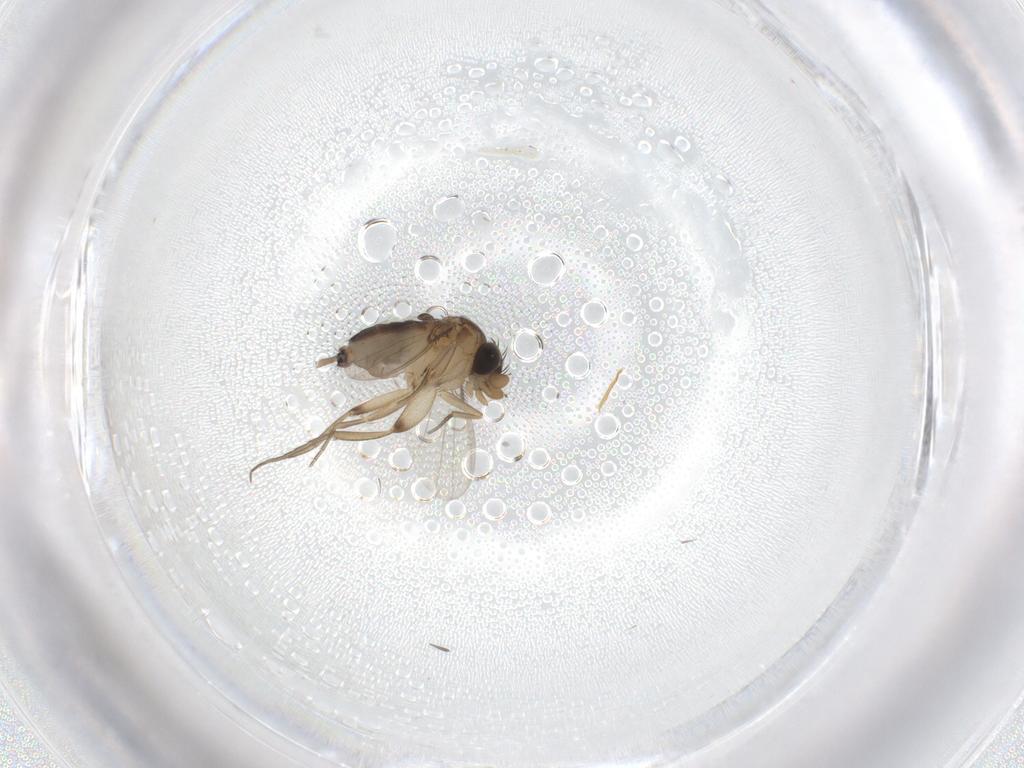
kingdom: Animalia
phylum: Arthropoda
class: Insecta
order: Diptera
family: Phoridae
